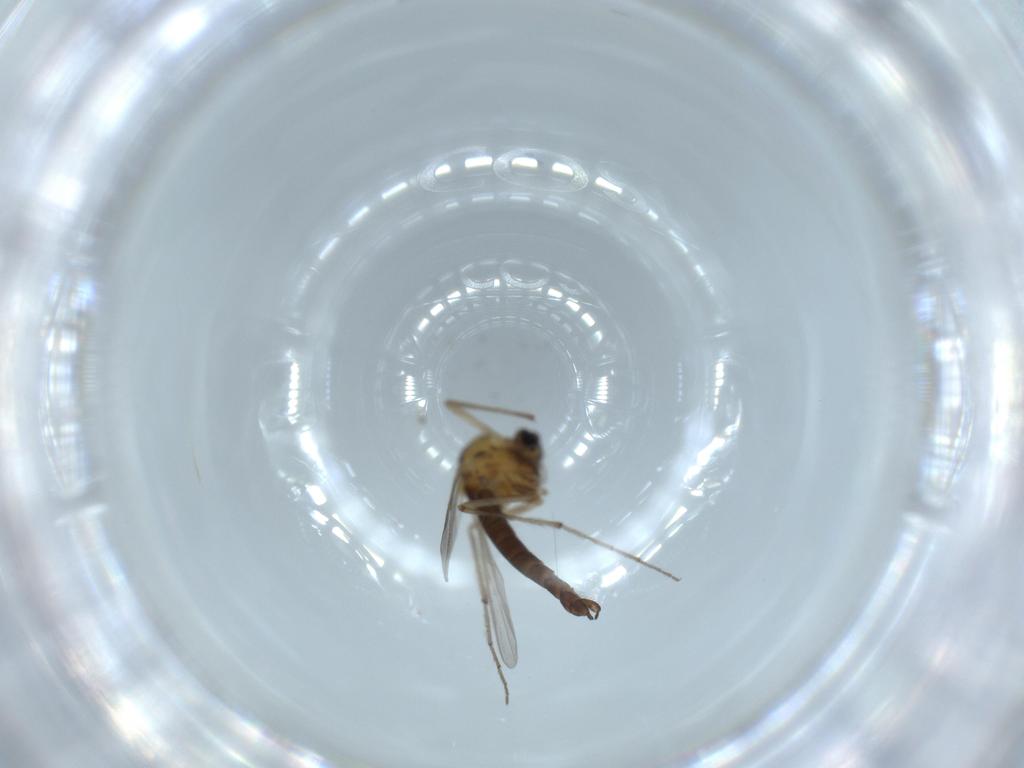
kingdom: Animalia
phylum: Arthropoda
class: Insecta
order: Diptera
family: Chironomidae
